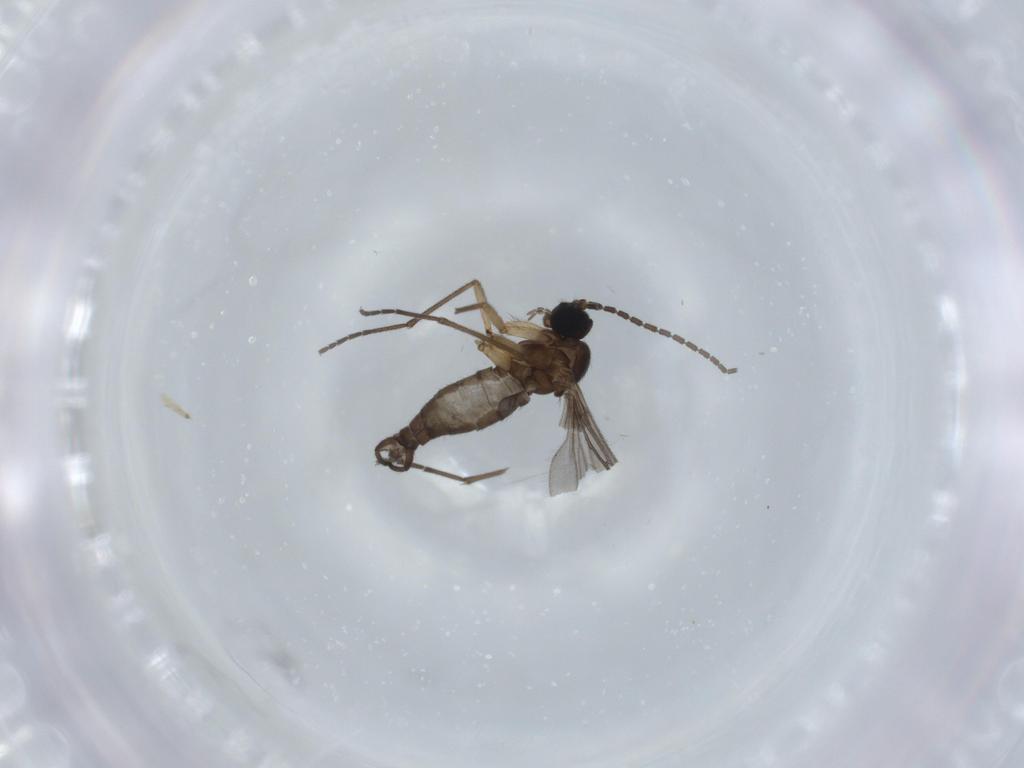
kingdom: Animalia
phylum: Arthropoda
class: Insecta
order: Diptera
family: Sciaridae
